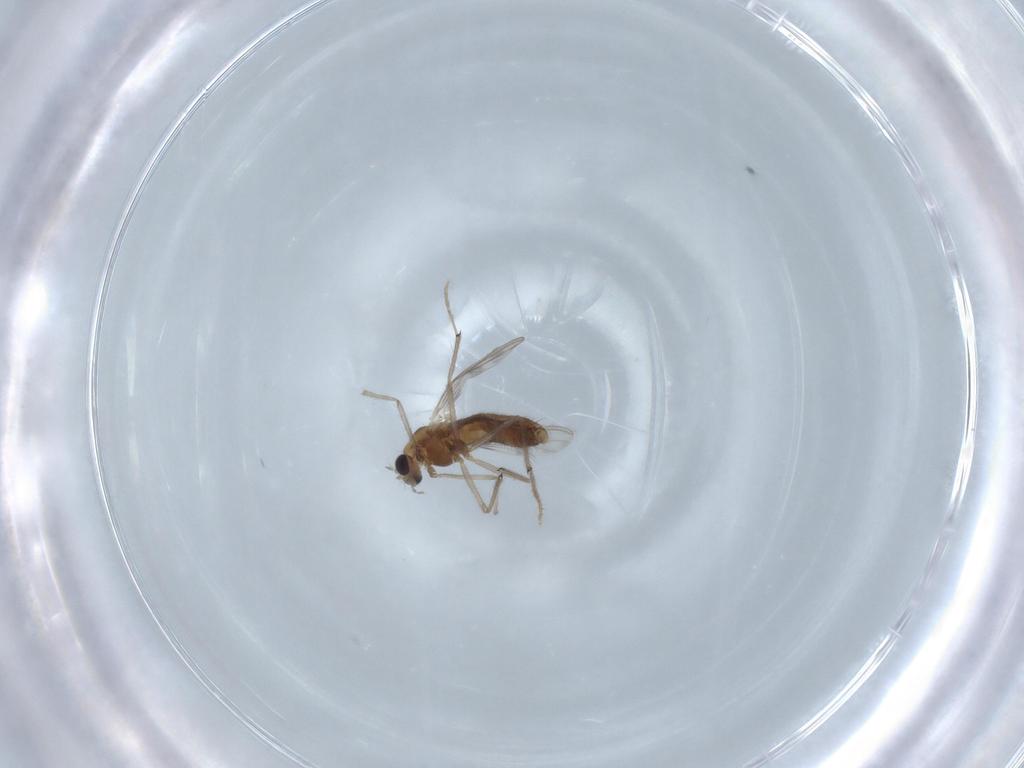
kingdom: Animalia
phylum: Arthropoda
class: Insecta
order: Diptera
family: Chironomidae
